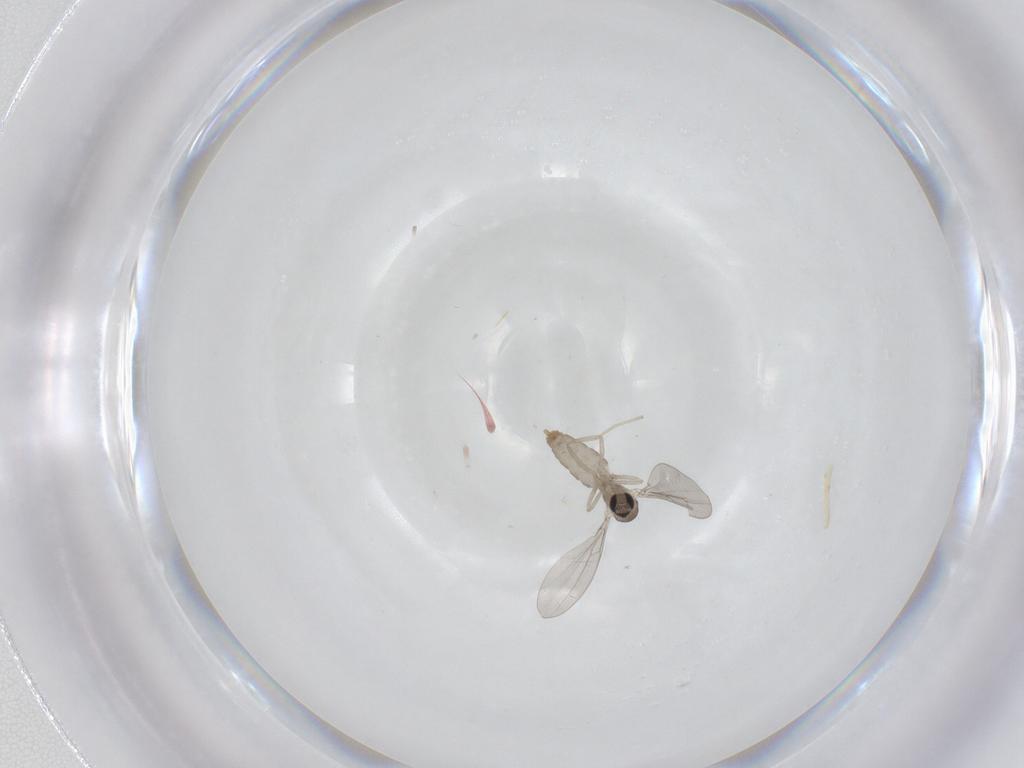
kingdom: Animalia
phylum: Arthropoda
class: Insecta
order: Diptera
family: Cecidomyiidae
